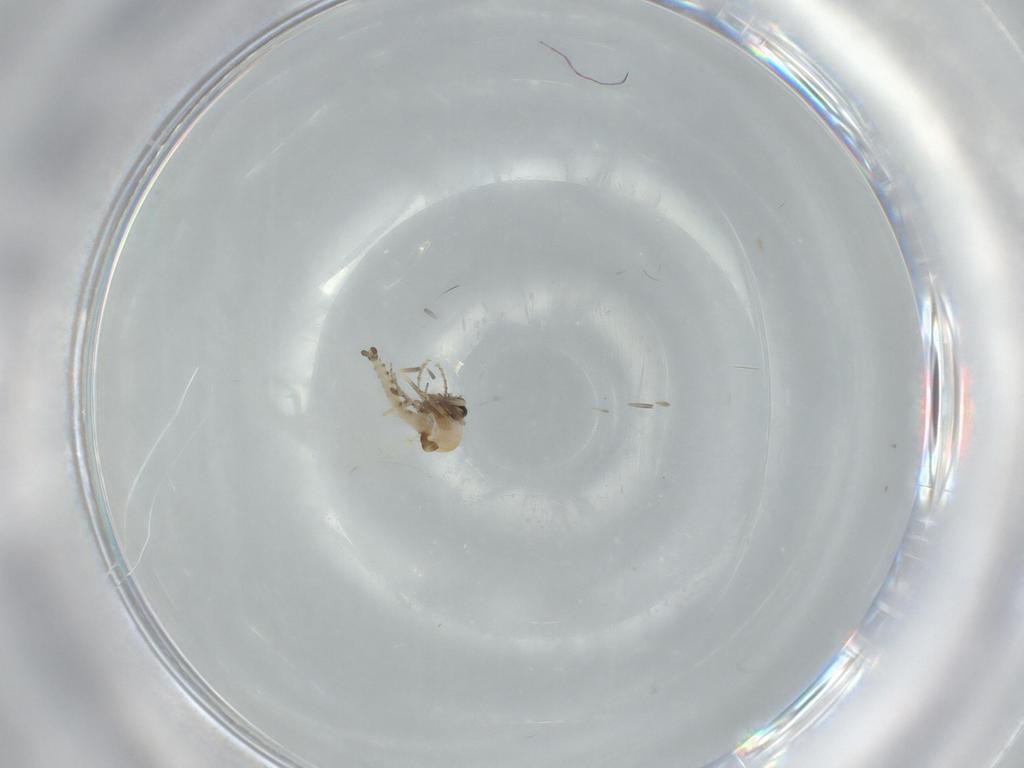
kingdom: Animalia
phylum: Arthropoda
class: Insecta
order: Diptera
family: Ceratopogonidae
